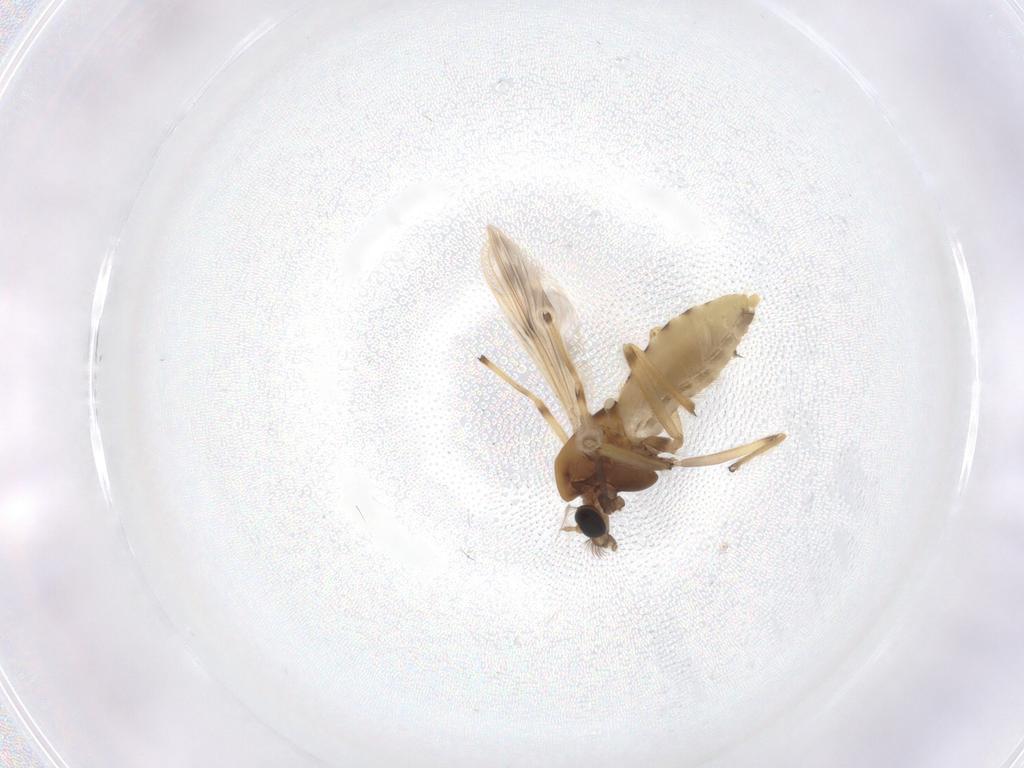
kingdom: Animalia
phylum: Arthropoda
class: Insecta
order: Diptera
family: Chironomidae
